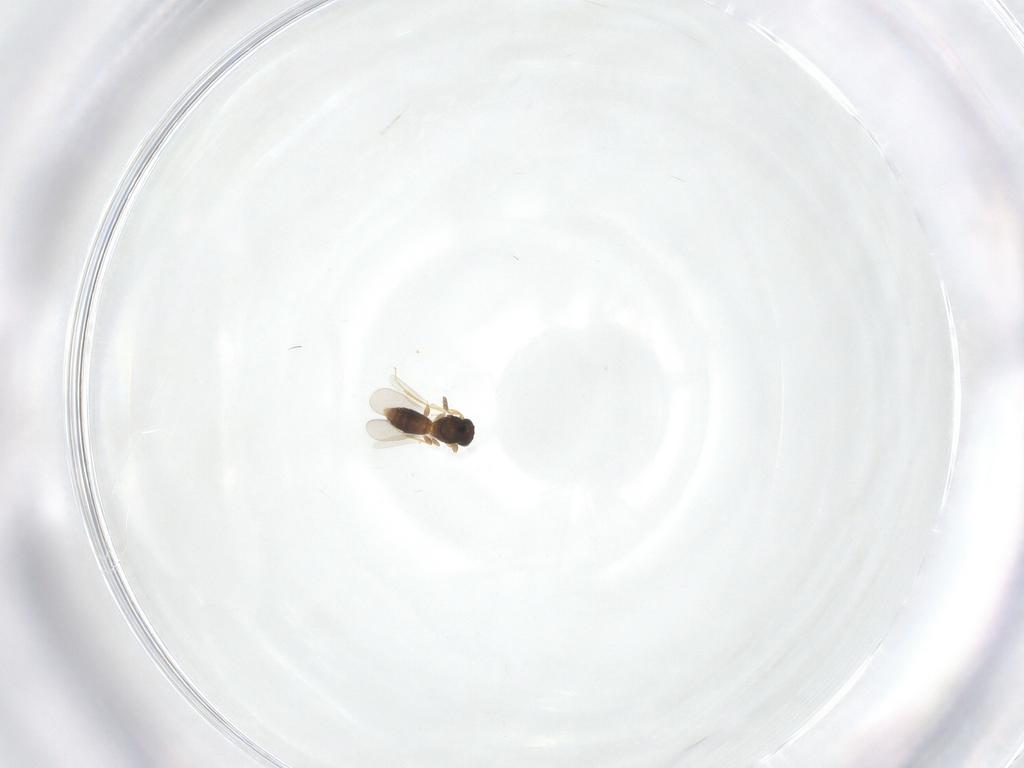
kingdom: Animalia
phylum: Arthropoda
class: Insecta
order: Hymenoptera
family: Platygastridae
